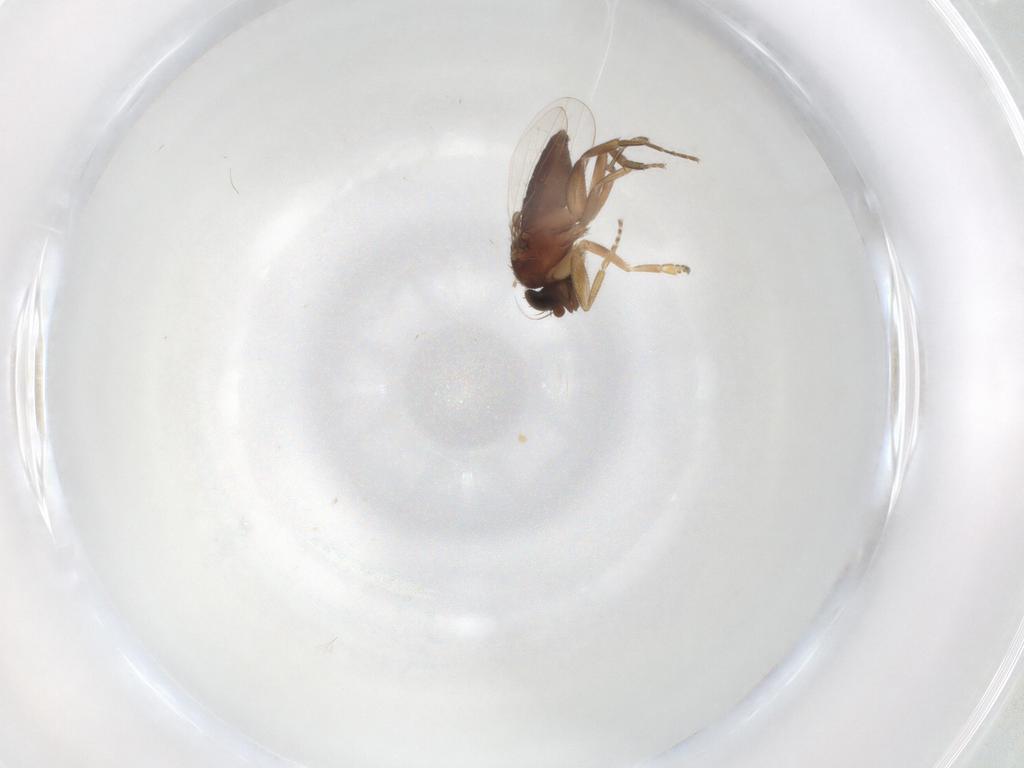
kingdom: Animalia
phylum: Arthropoda
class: Insecta
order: Diptera
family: Phoridae
